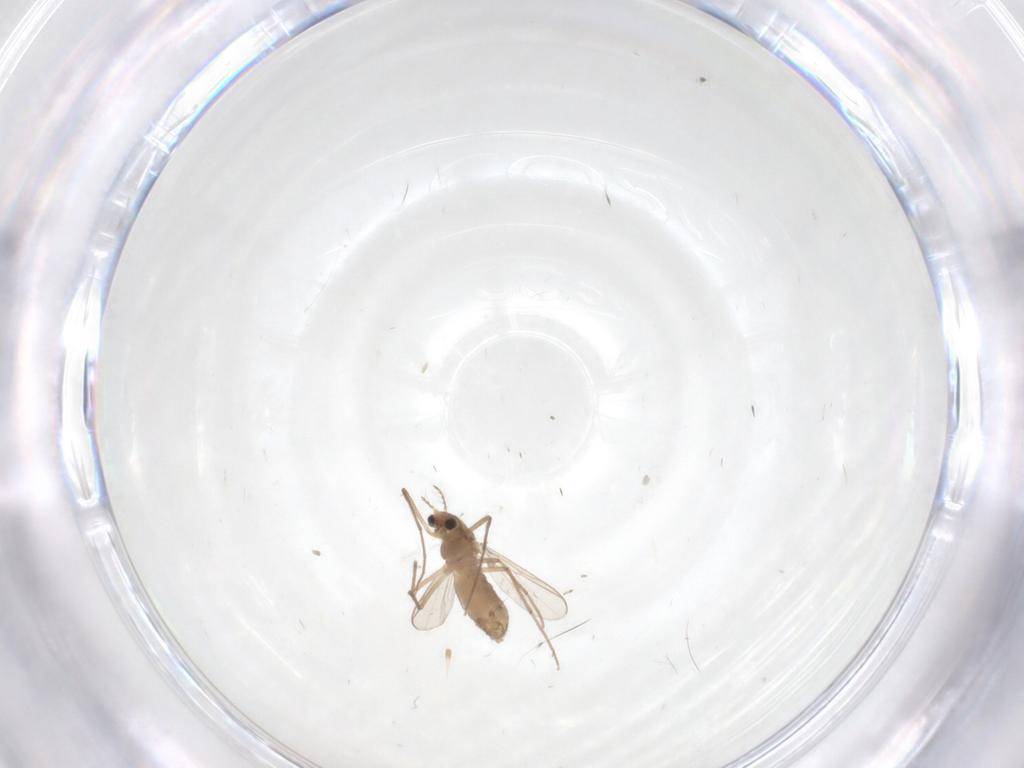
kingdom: Animalia
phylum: Arthropoda
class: Insecta
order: Diptera
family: Chironomidae
